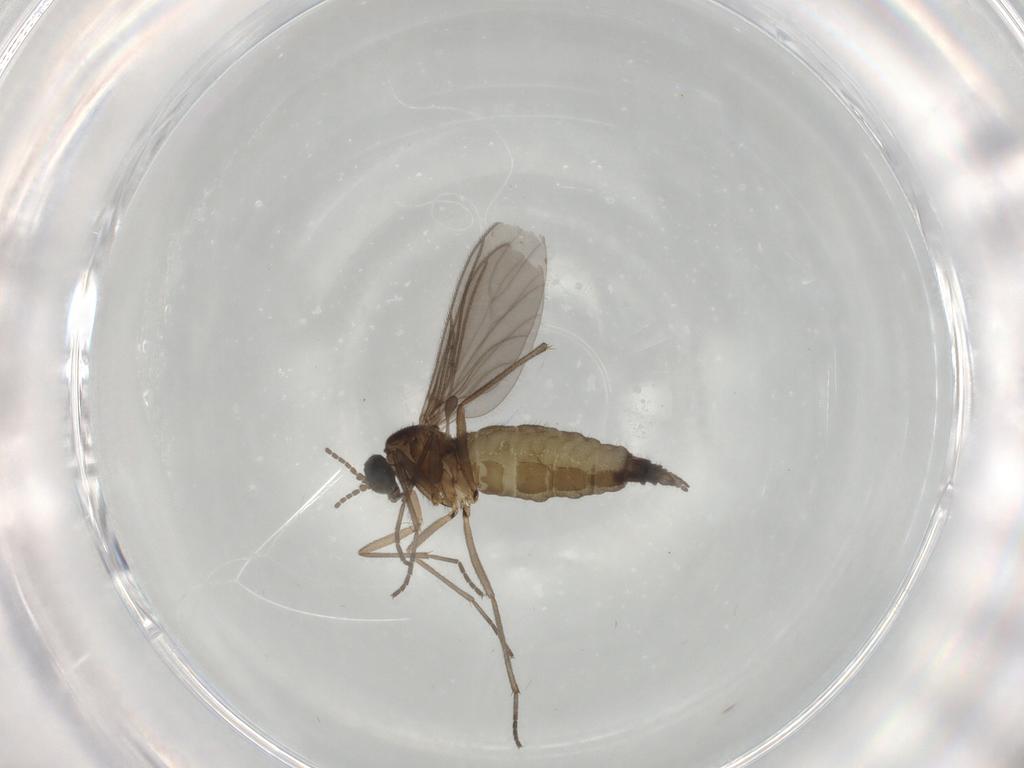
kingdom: Animalia
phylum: Arthropoda
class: Insecta
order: Diptera
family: Sciaridae
